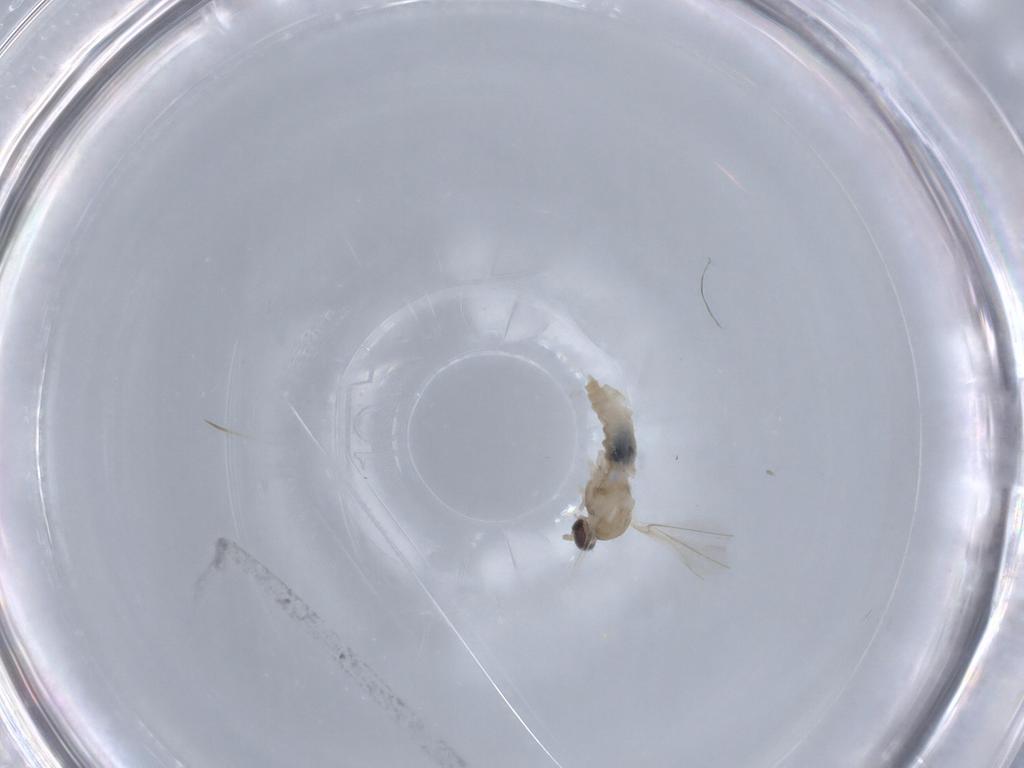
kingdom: Animalia
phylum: Arthropoda
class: Insecta
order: Diptera
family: Cecidomyiidae
